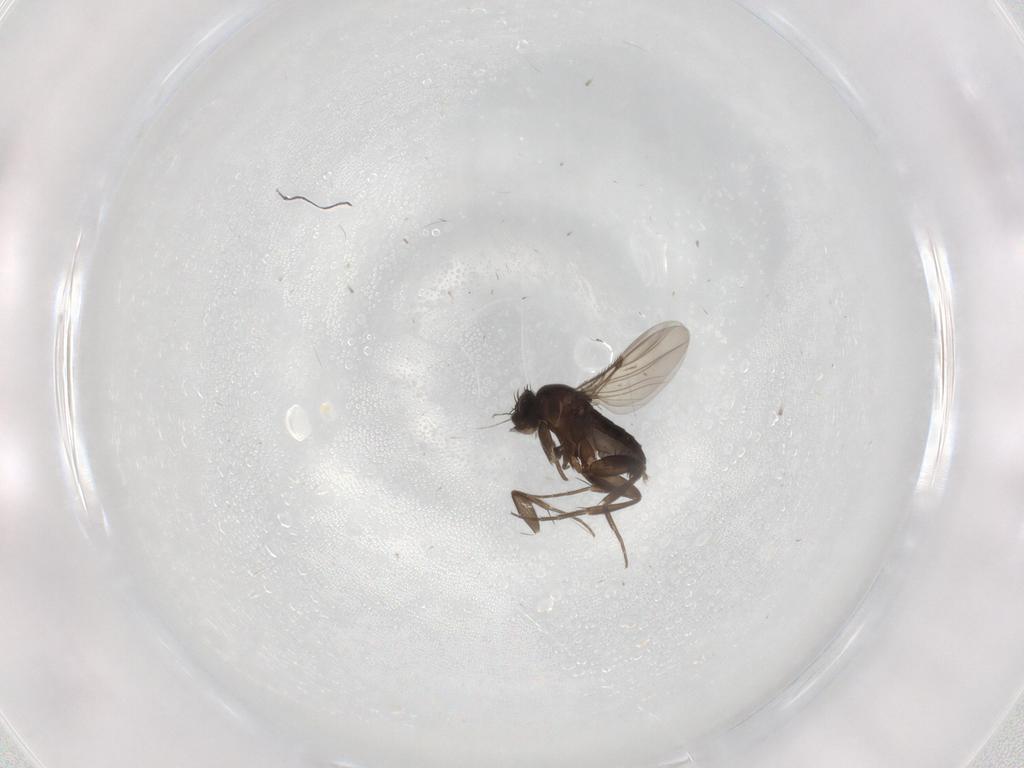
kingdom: Animalia
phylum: Arthropoda
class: Insecta
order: Diptera
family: Phoridae
